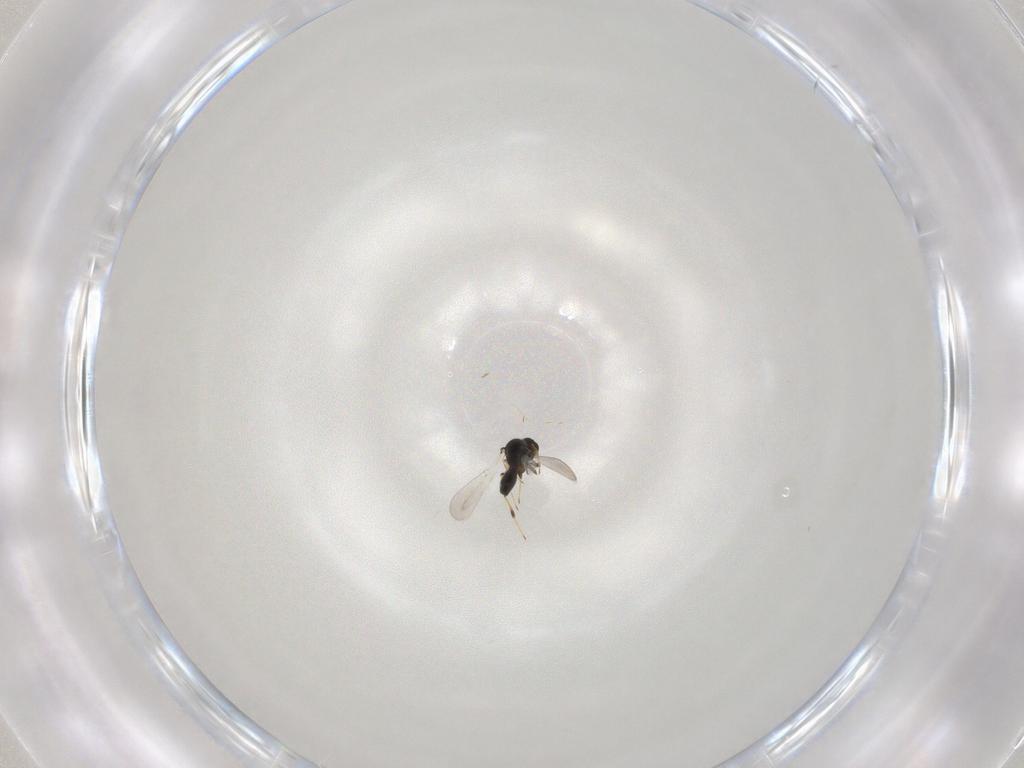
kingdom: Animalia
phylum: Arthropoda
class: Insecta
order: Hymenoptera
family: Platygastridae
